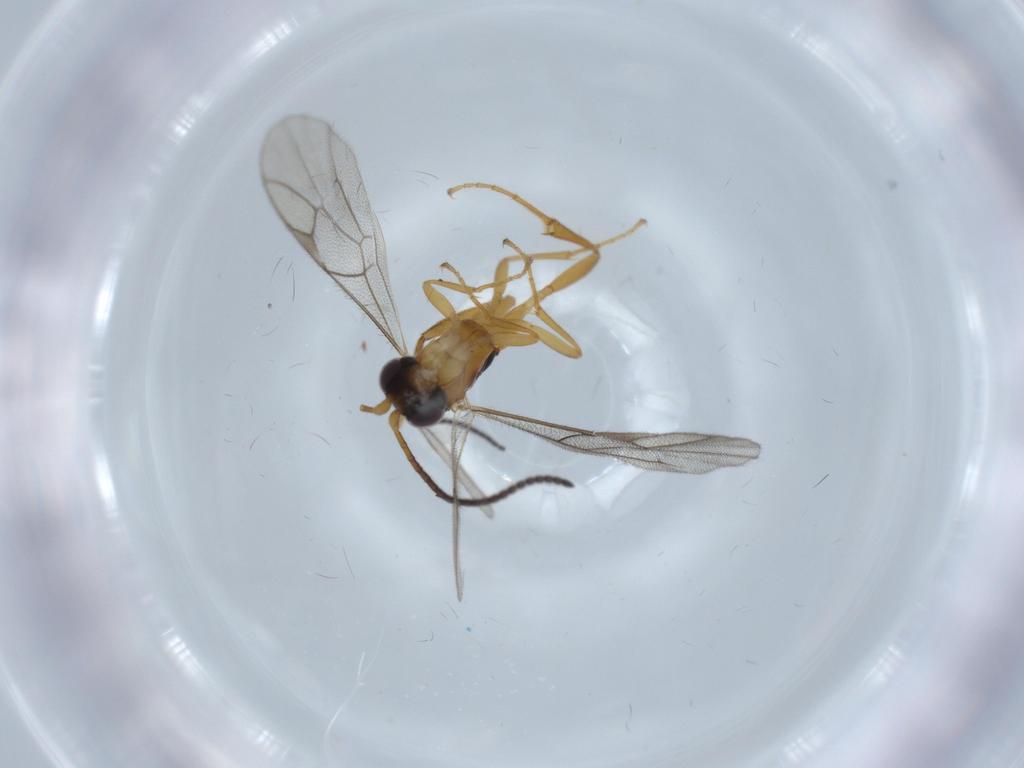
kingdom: Animalia
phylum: Arthropoda
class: Insecta
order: Hymenoptera
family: Ichneumonidae
